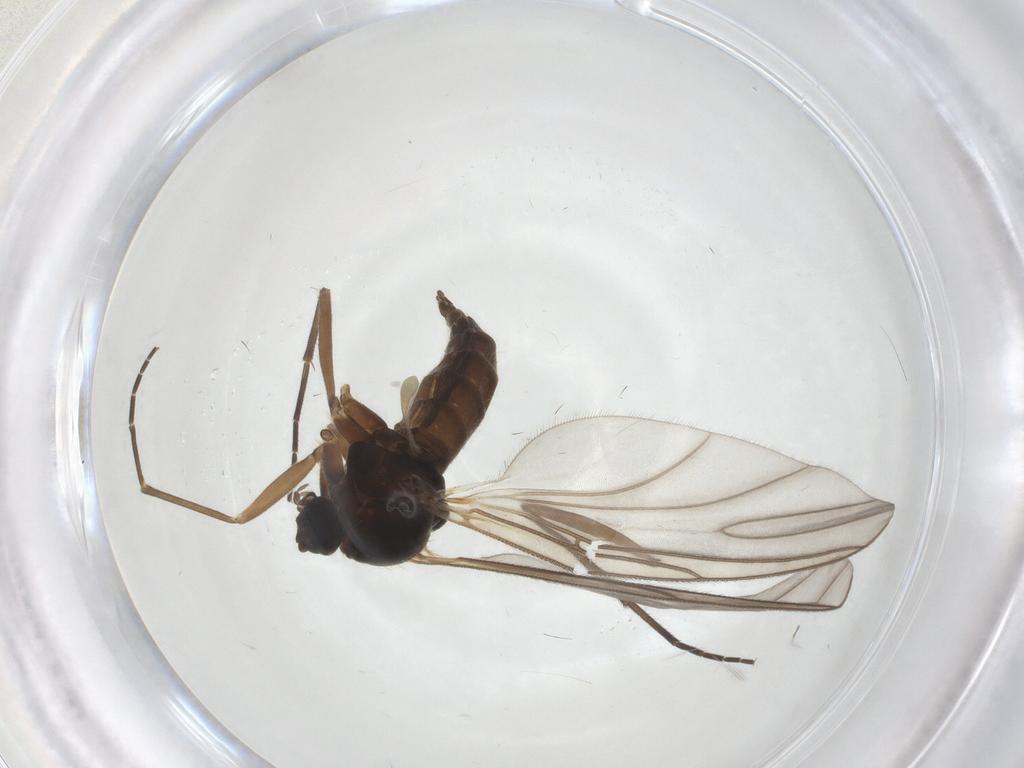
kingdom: Animalia
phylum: Arthropoda
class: Insecta
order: Diptera
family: Sciaridae
